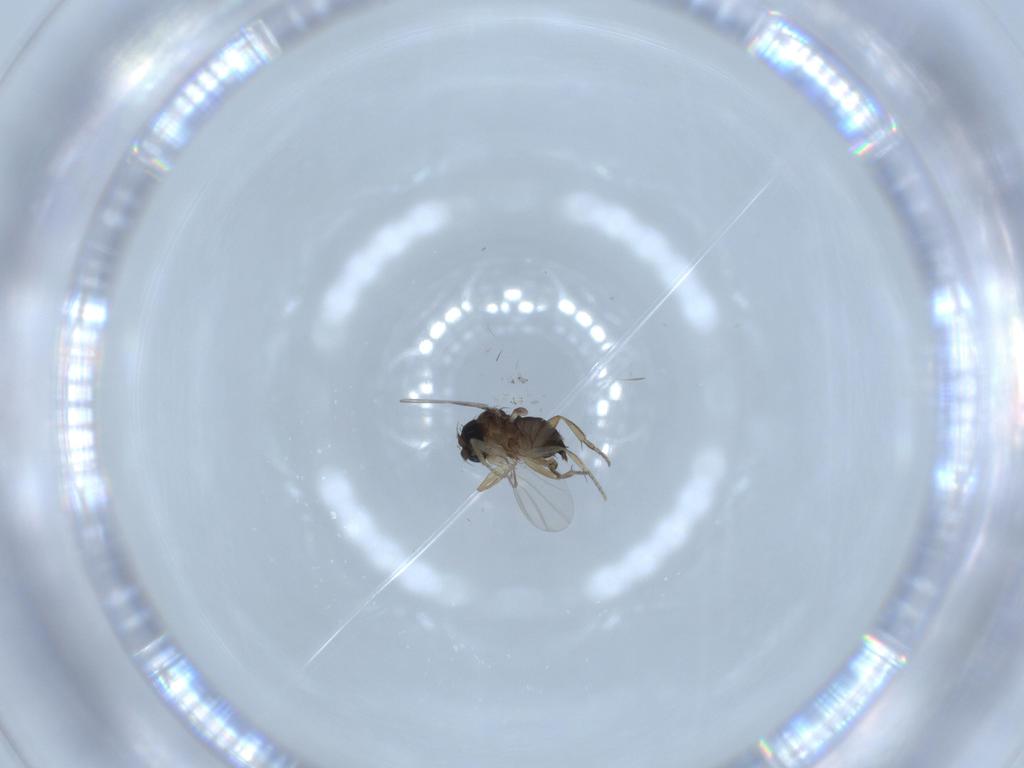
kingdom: Animalia
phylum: Arthropoda
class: Insecta
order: Diptera
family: Phoridae
